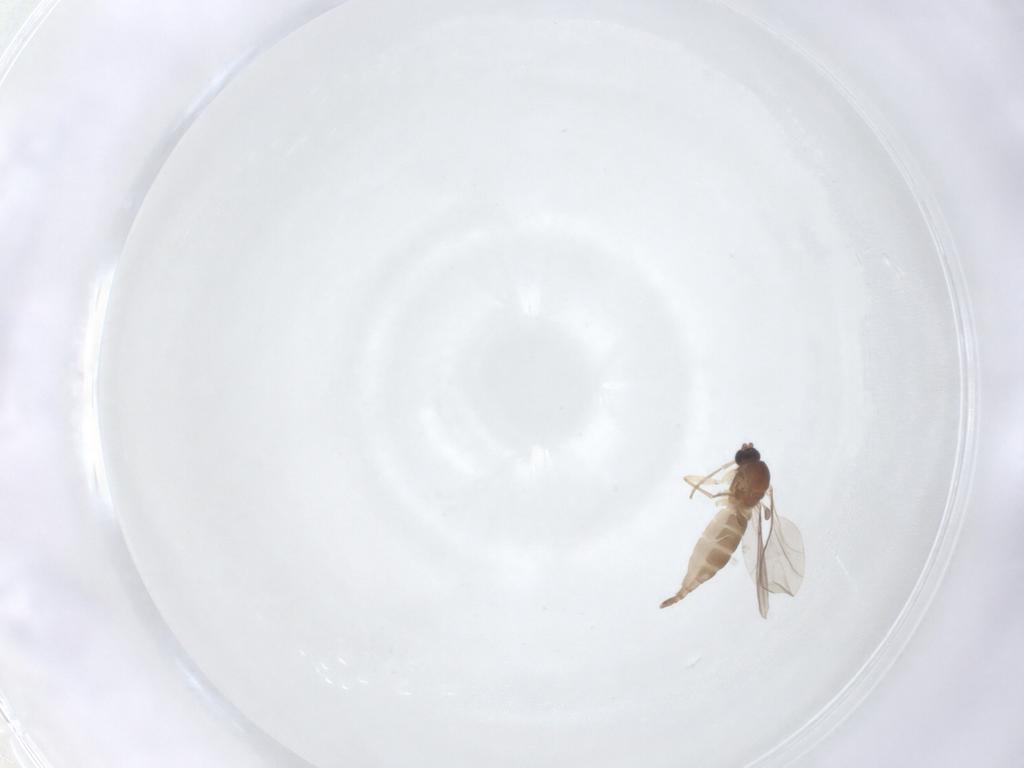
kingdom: Animalia
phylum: Arthropoda
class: Insecta
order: Diptera
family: Sciaridae
